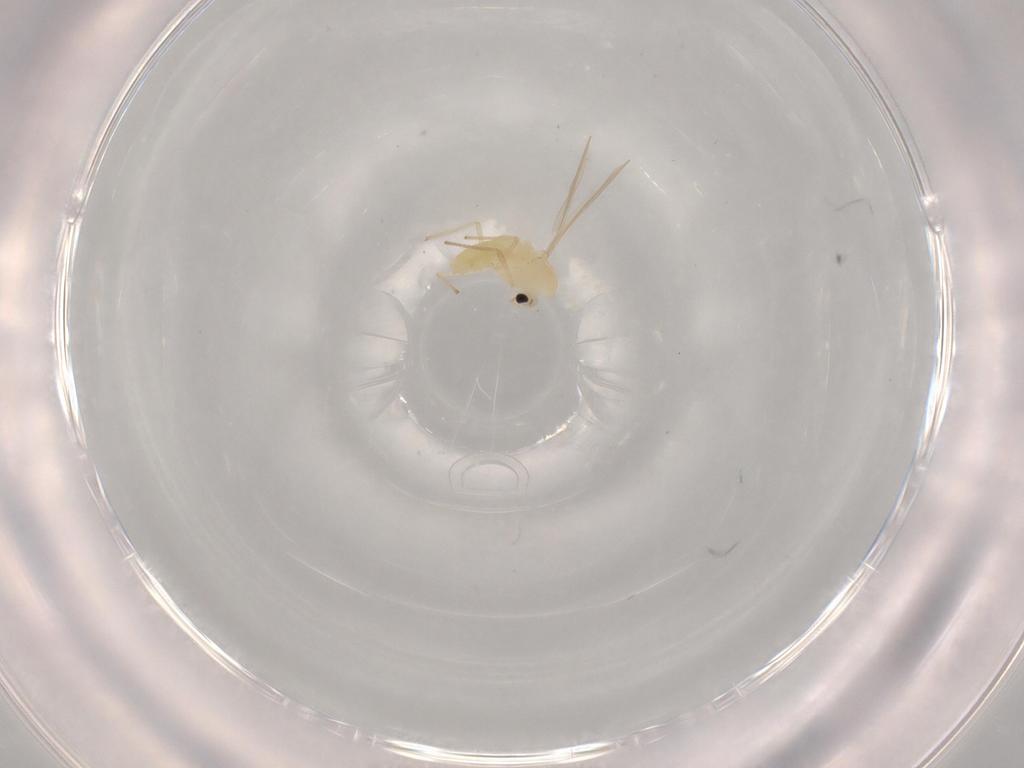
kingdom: Animalia
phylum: Arthropoda
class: Insecta
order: Diptera
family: Chironomidae
